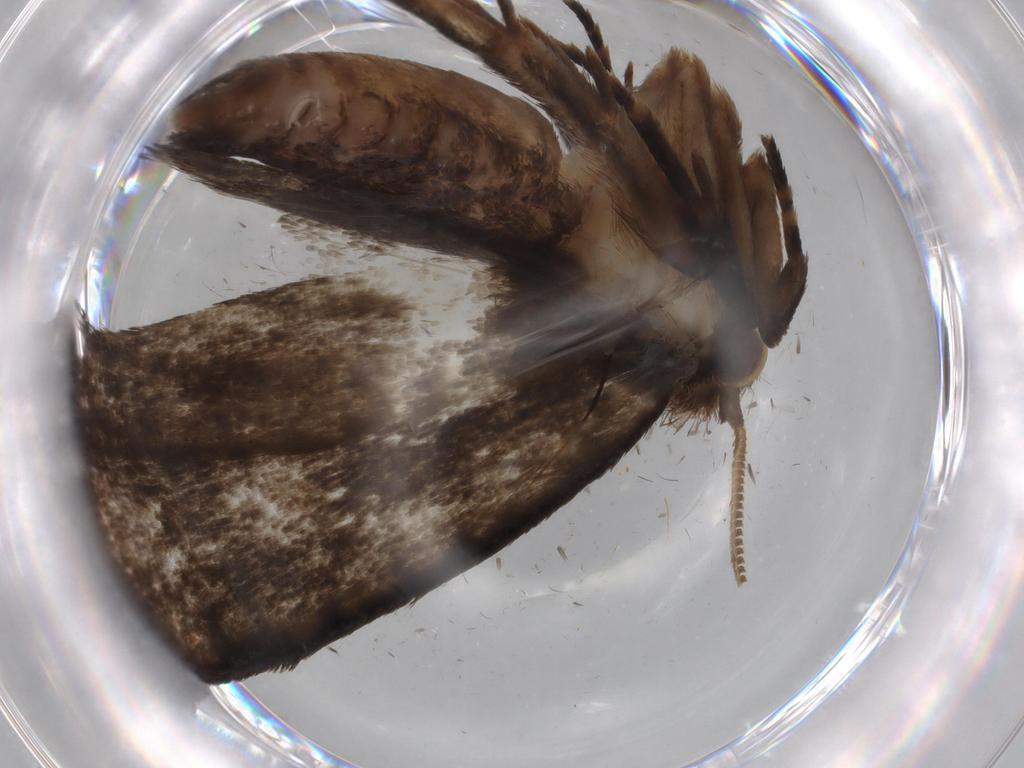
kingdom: Animalia
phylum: Arthropoda
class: Insecta
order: Lepidoptera
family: Tineidae
